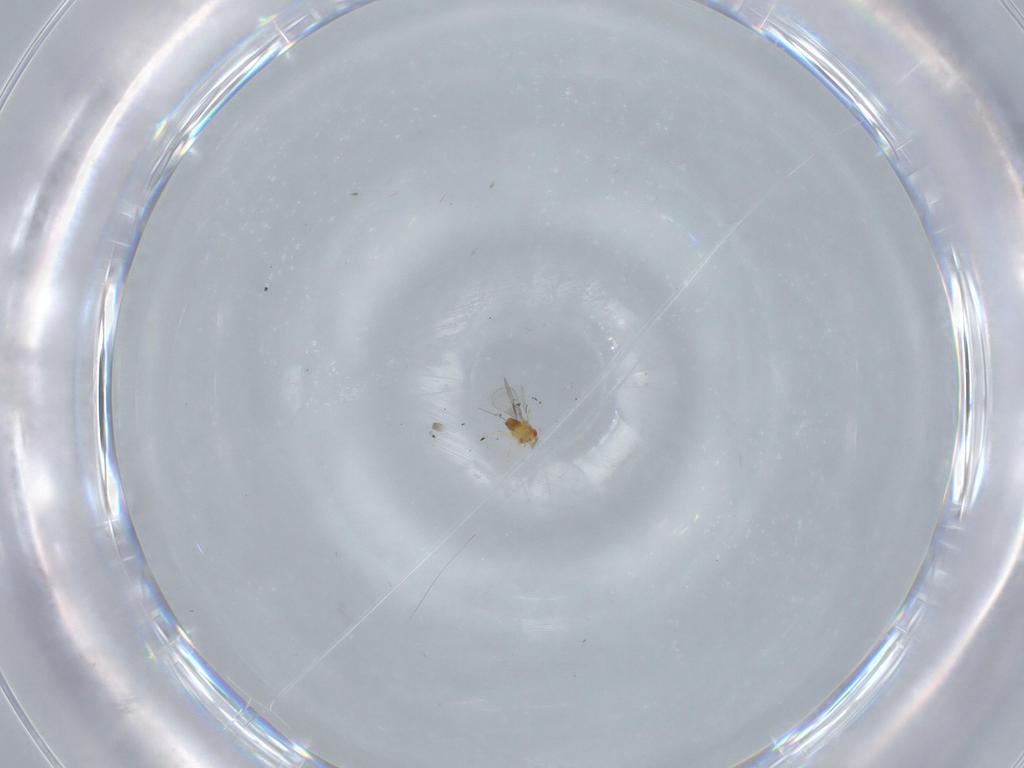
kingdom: Animalia
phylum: Arthropoda
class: Insecta
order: Hymenoptera
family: Trichogrammatidae
